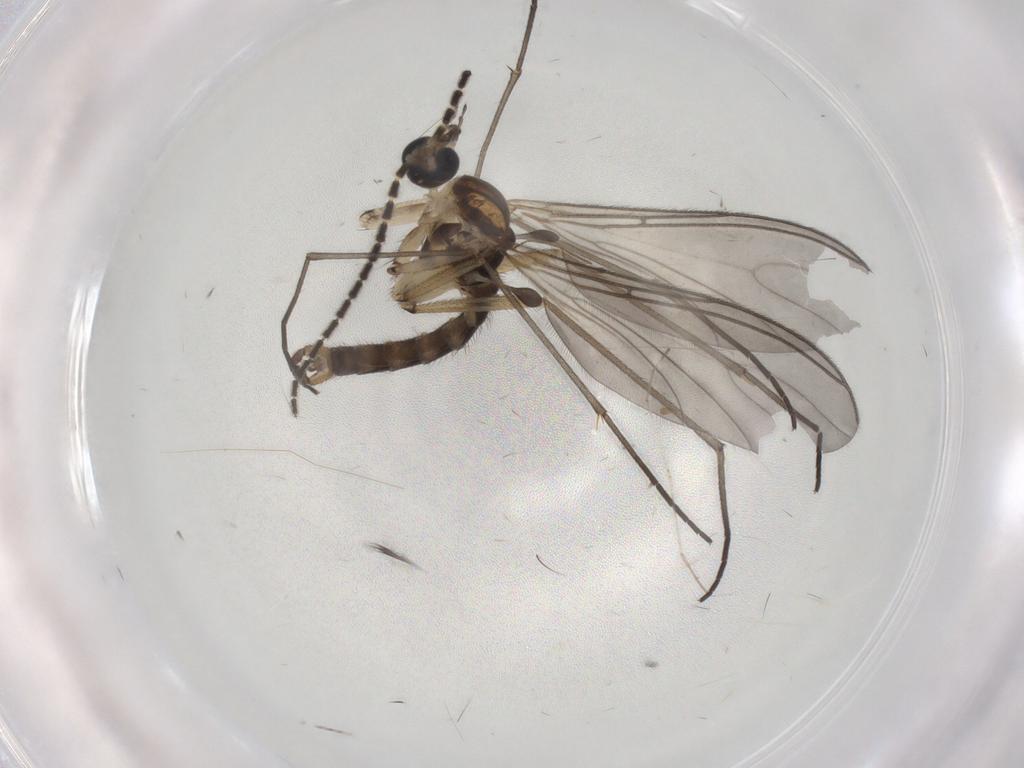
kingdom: Animalia
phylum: Arthropoda
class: Insecta
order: Diptera
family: Sciaridae
